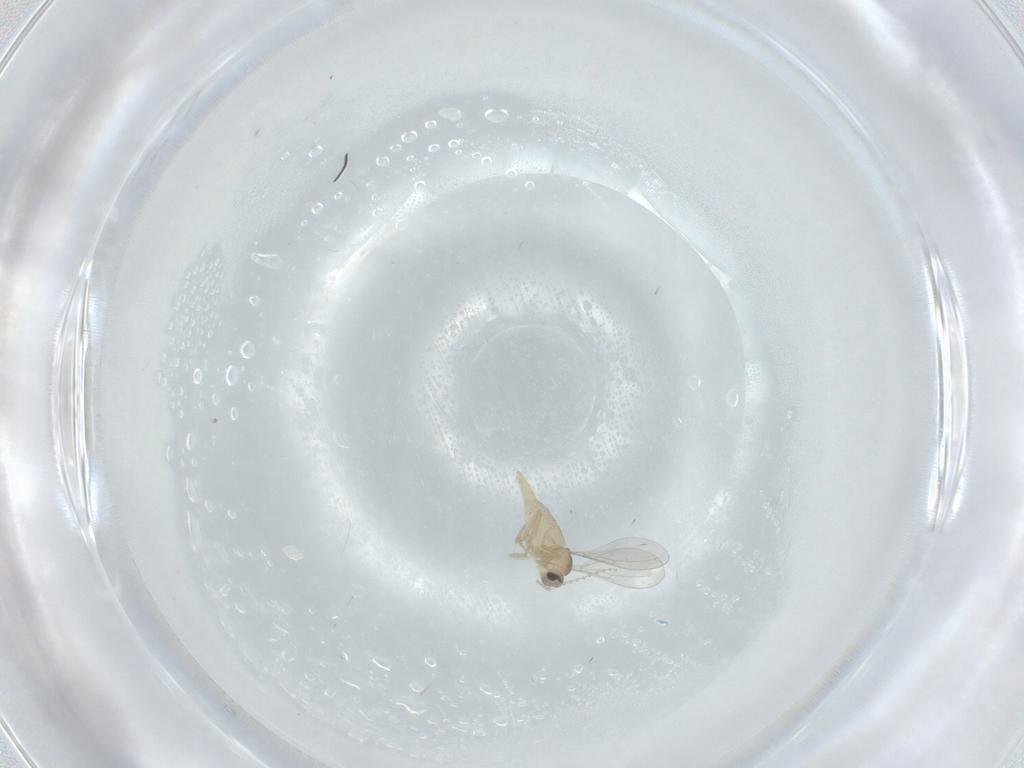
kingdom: Animalia
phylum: Arthropoda
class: Insecta
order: Diptera
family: Cecidomyiidae
